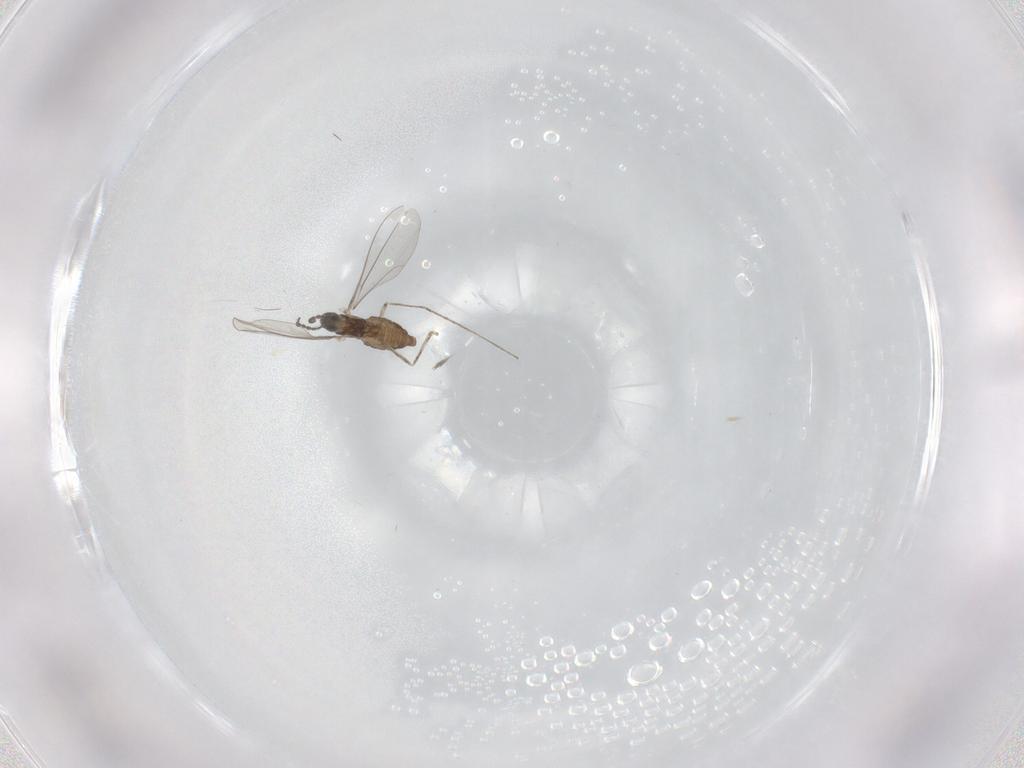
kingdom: Animalia
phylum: Arthropoda
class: Insecta
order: Diptera
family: Cecidomyiidae
